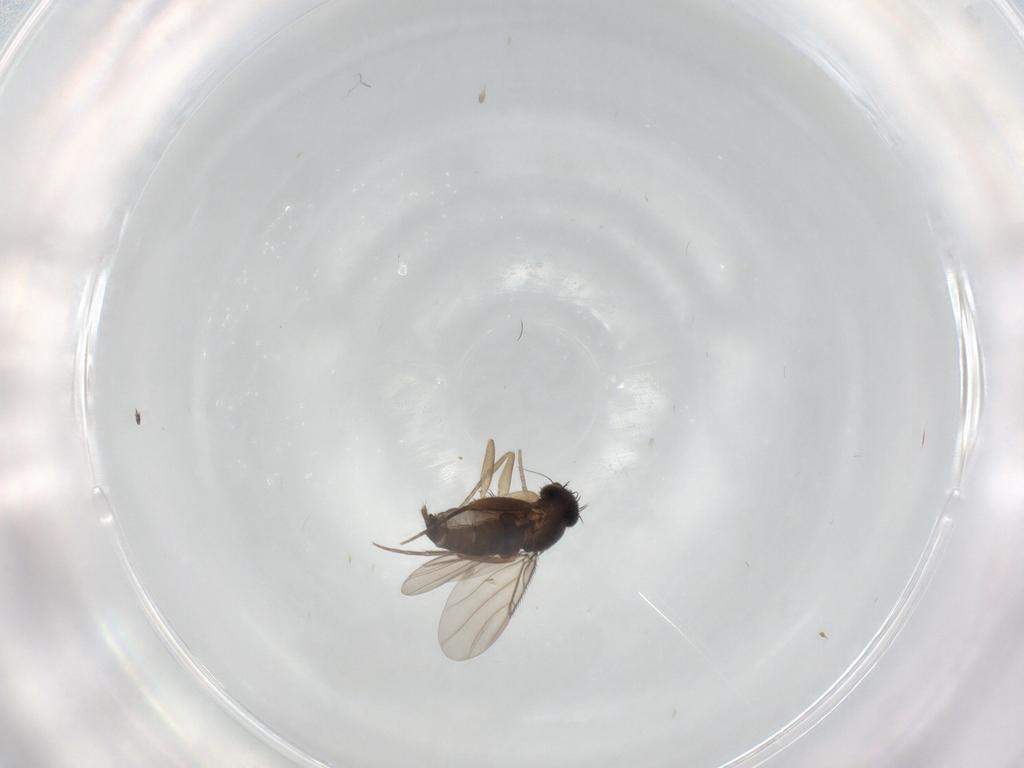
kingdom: Animalia
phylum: Arthropoda
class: Insecta
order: Diptera
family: Phoridae
